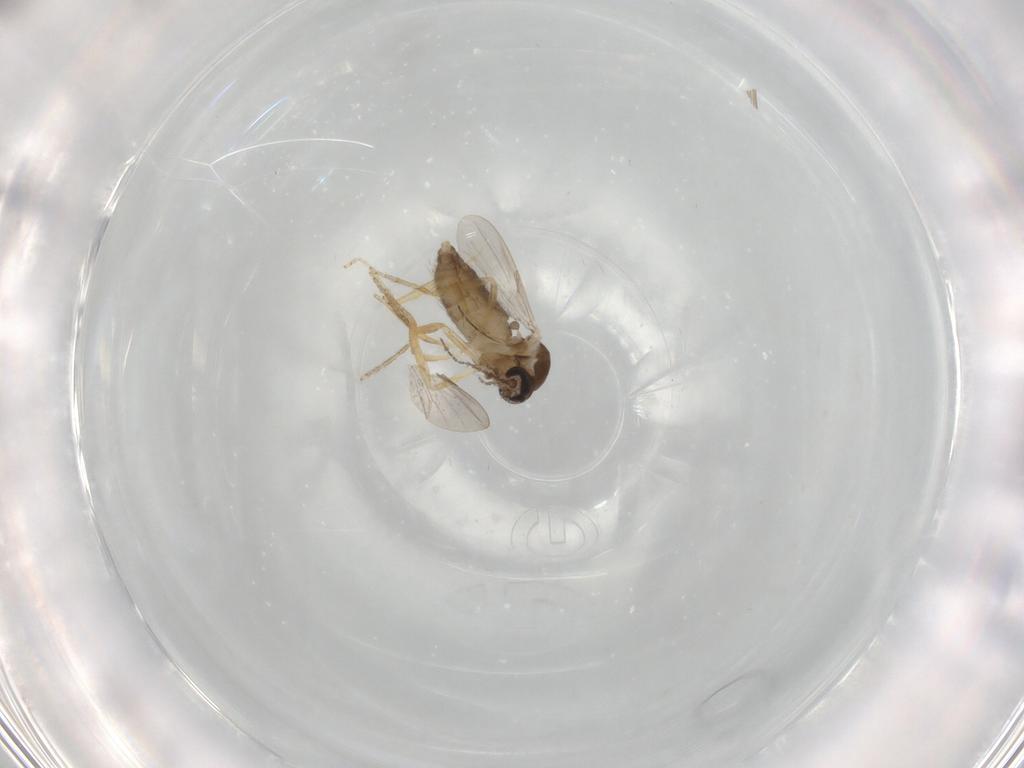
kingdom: Animalia
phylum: Arthropoda
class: Insecta
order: Diptera
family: Ceratopogonidae
